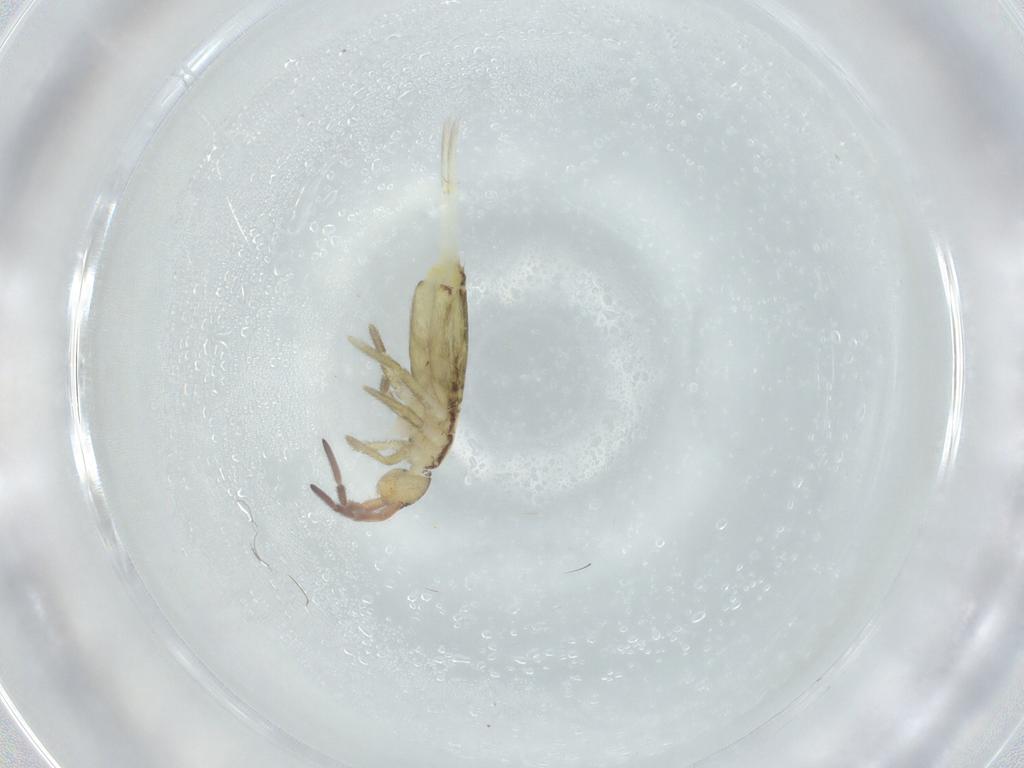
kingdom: Animalia
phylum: Arthropoda
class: Collembola
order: Entomobryomorpha
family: Entomobryidae
